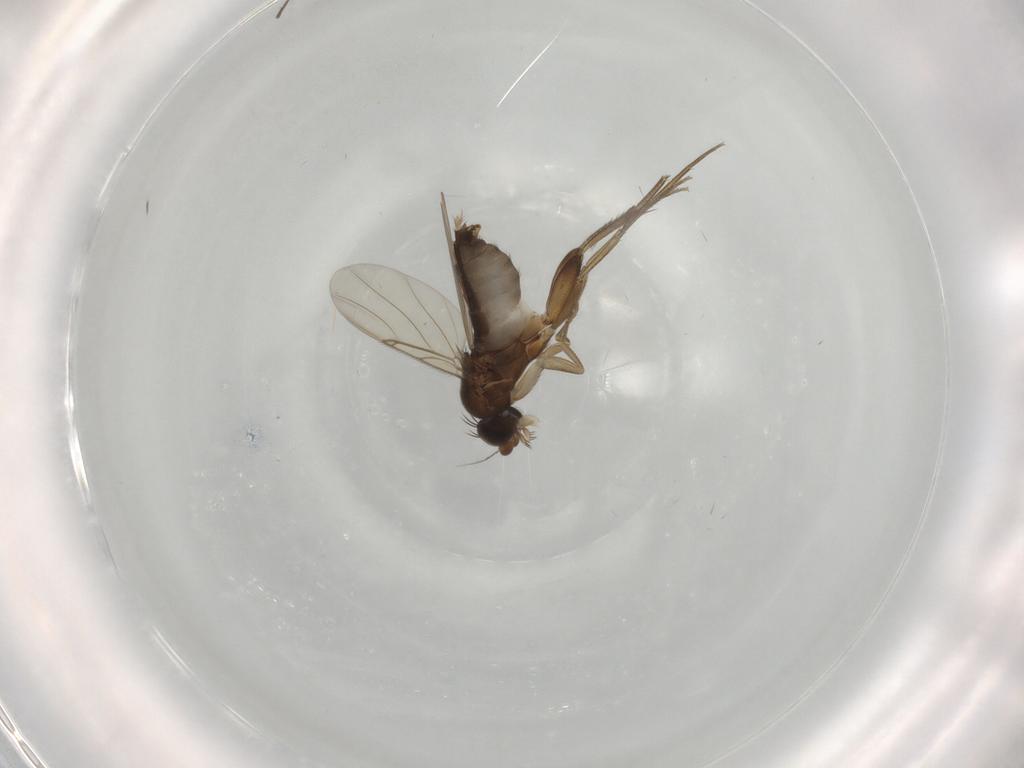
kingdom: Animalia
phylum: Arthropoda
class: Insecta
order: Diptera
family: Phoridae
